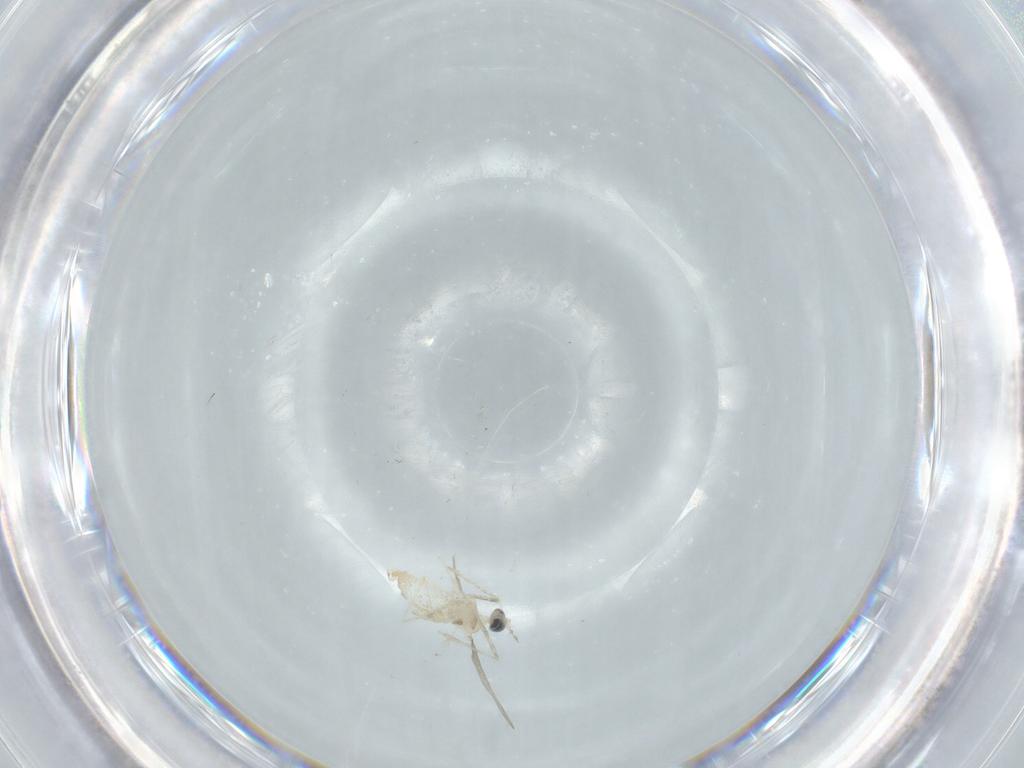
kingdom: Animalia
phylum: Arthropoda
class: Insecta
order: Diptera
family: Cecidomyiidae
